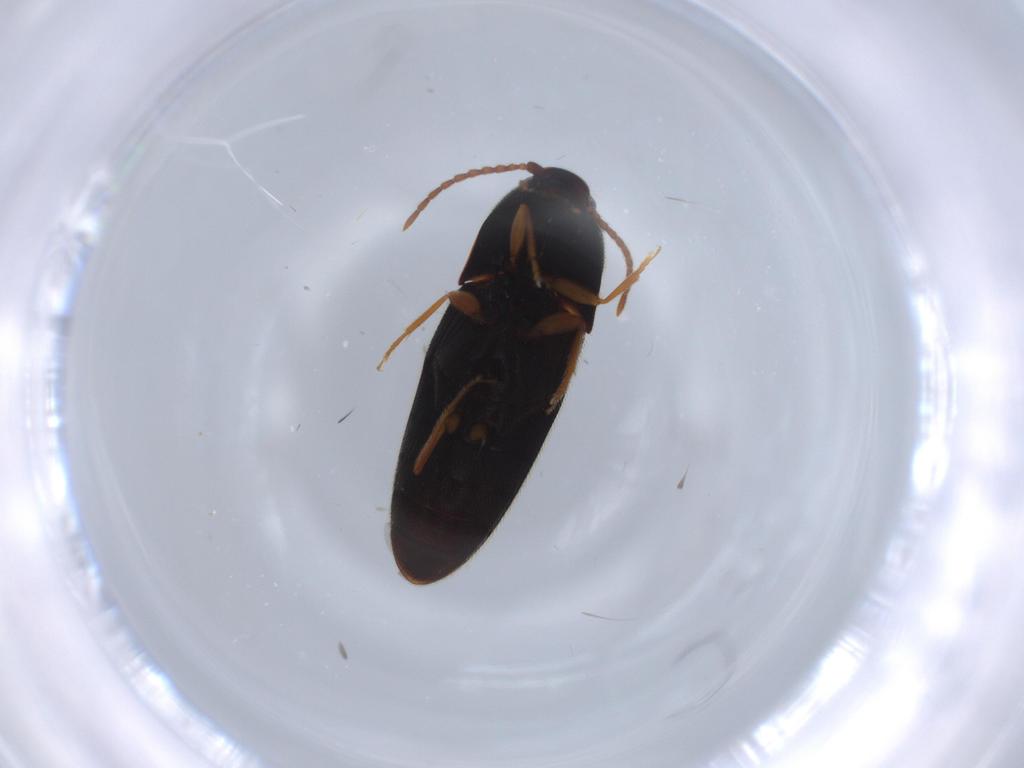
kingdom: Animalia
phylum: Arthropoda
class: Insecta
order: Coleoptera
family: Elateridae
